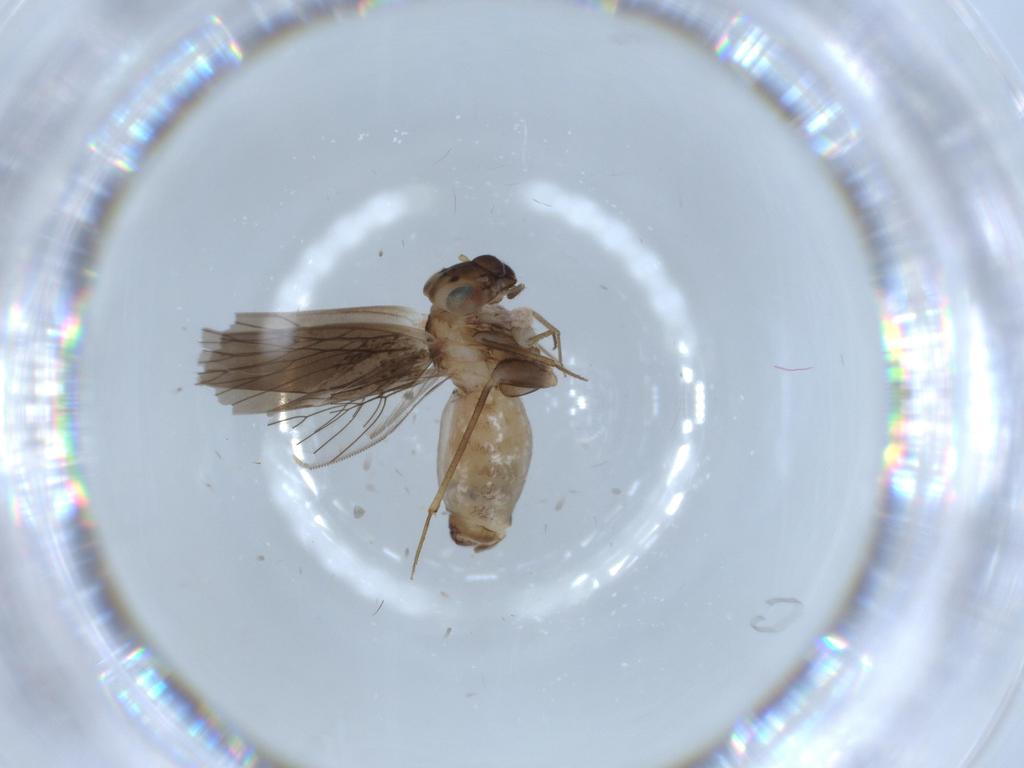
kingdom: Animalia
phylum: Arthropoda
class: Insecta
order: Psocodea
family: Lepidopsocidae
